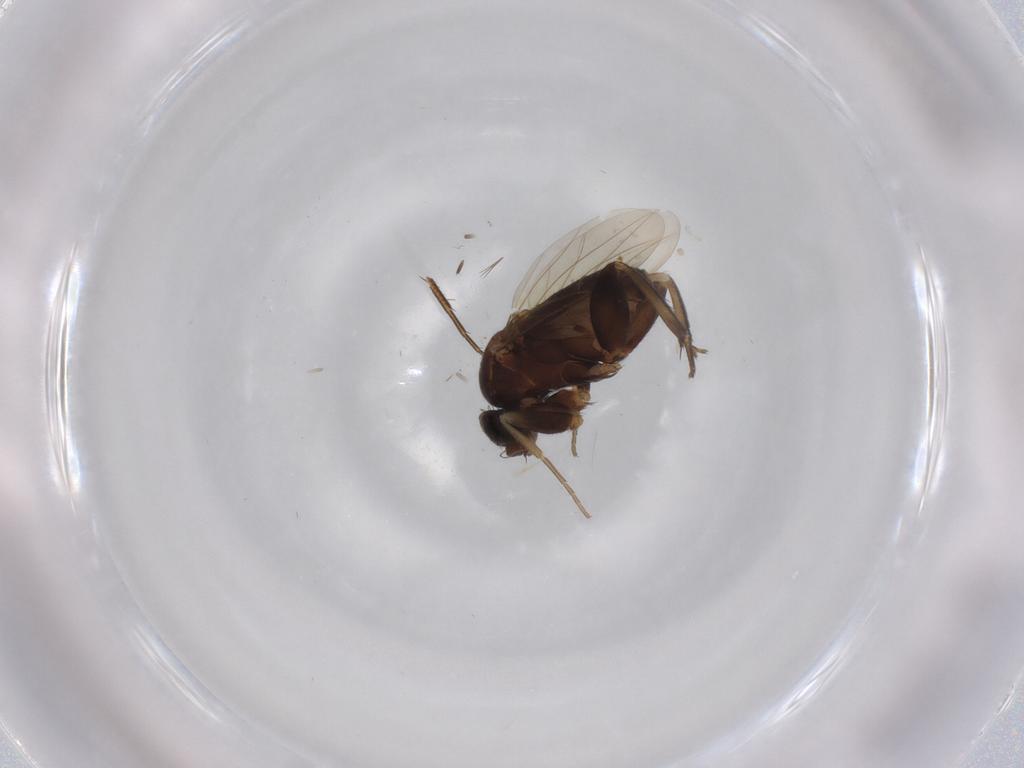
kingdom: Animalia
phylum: Arthropoda
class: Insecta
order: Diptera
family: Phoridae
